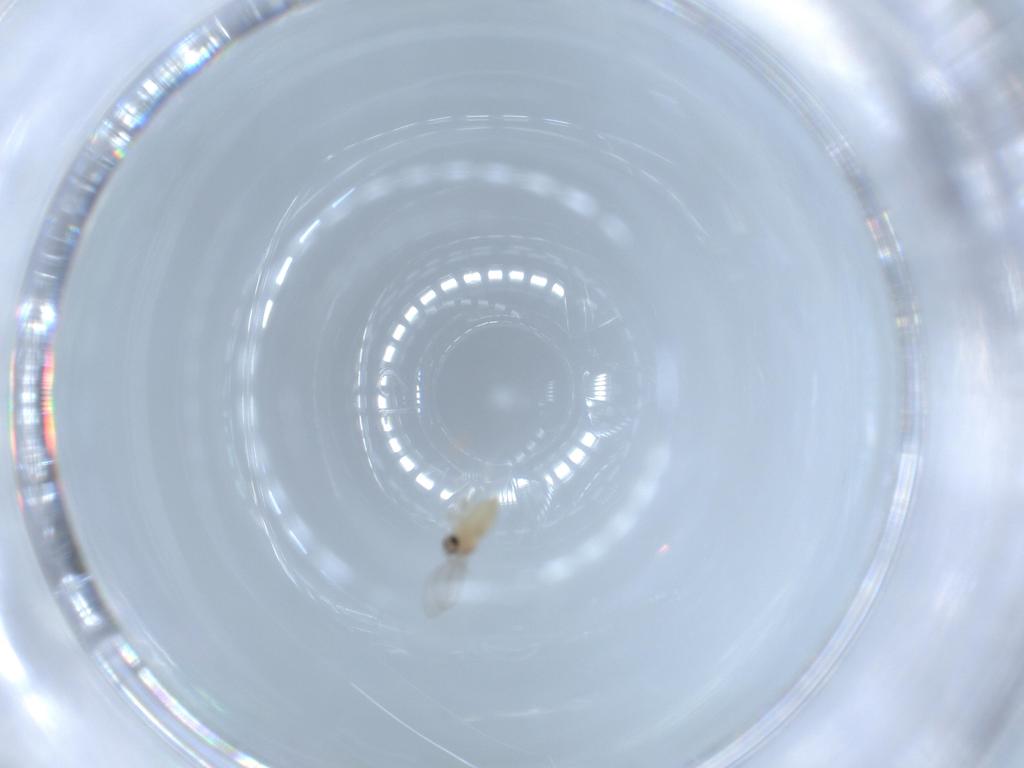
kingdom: Animalia
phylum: Arthropoda
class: Insecta
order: Diptera
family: Cecidomyiidae
